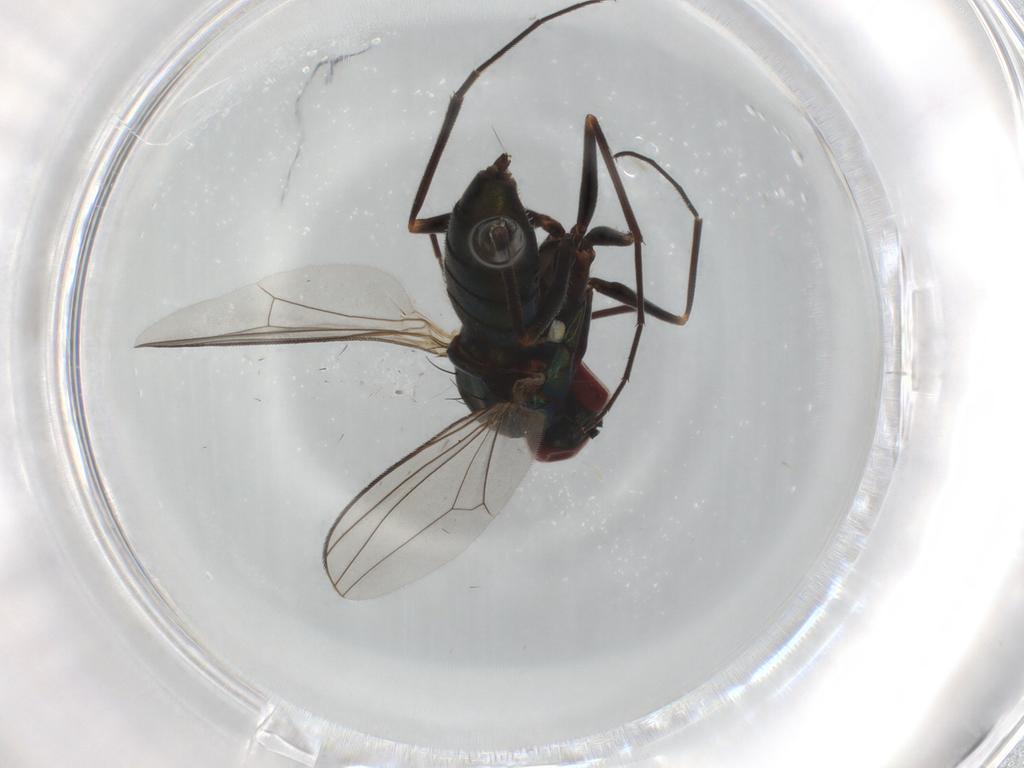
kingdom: Animalia
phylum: Arthropoda
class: Insecta
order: Diptera
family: Dolichopodidae
